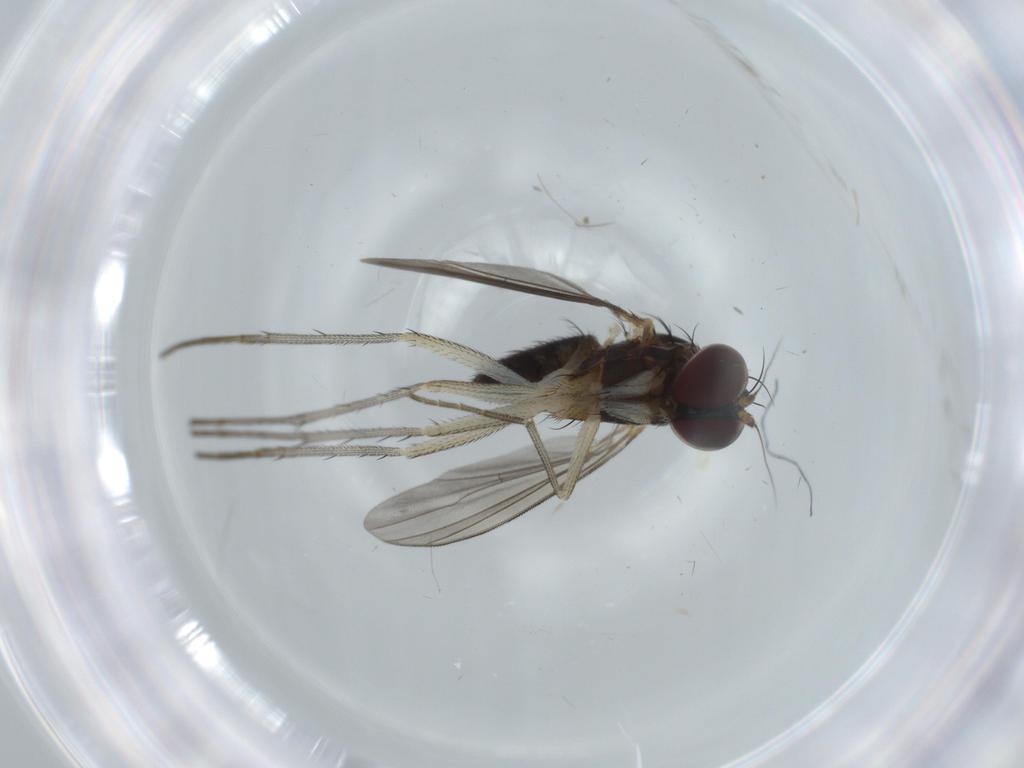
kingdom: Animalia
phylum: Arthropoda
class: Insecta
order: Diptera
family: Dolichopodidae
